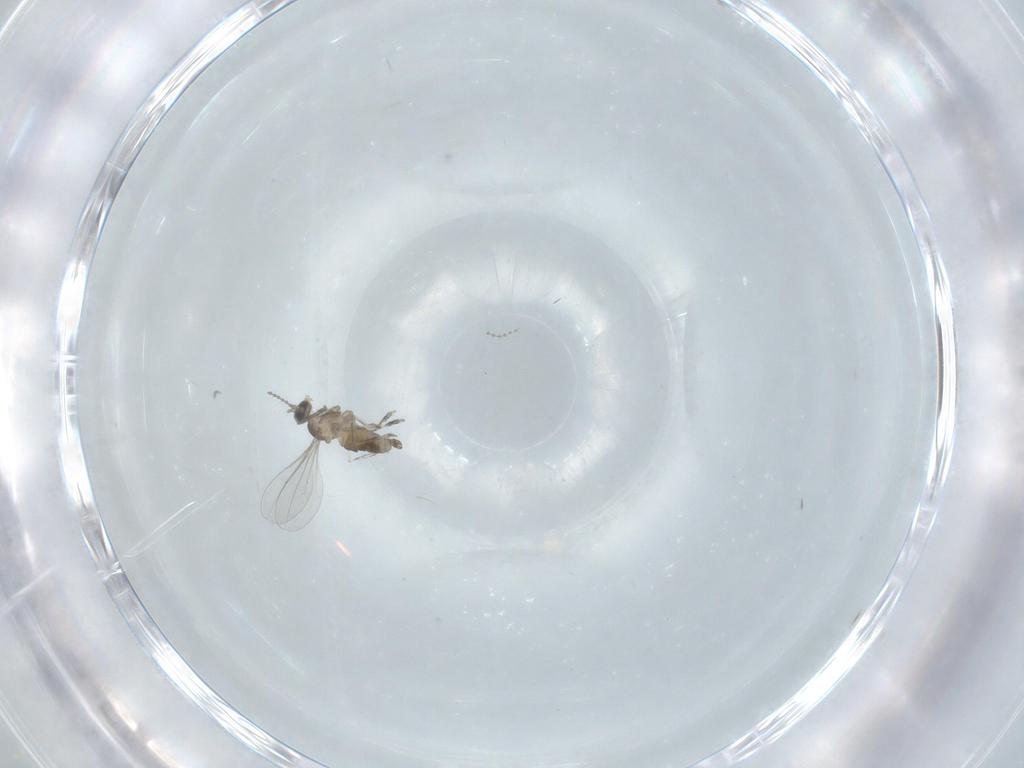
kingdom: Animalia
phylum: Arthropoda
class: Insecta
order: Diptera
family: Cecidomyiidae
